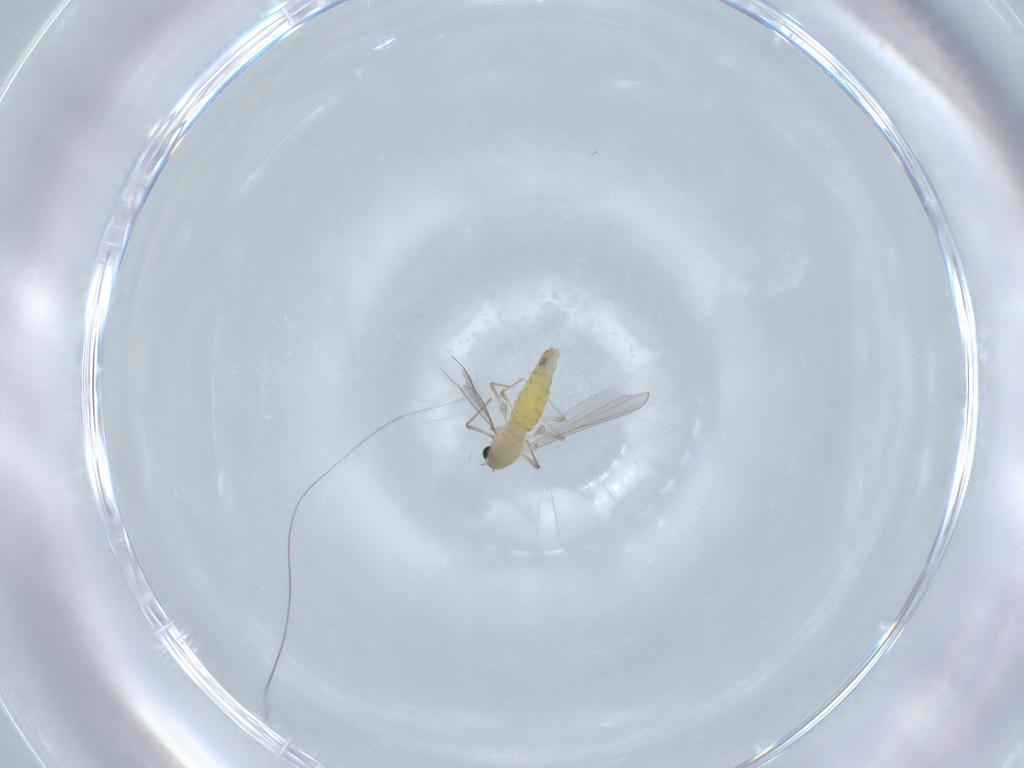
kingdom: Animalia
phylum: Arthropoda
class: Insecta
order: Diptera
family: Chironomidae
